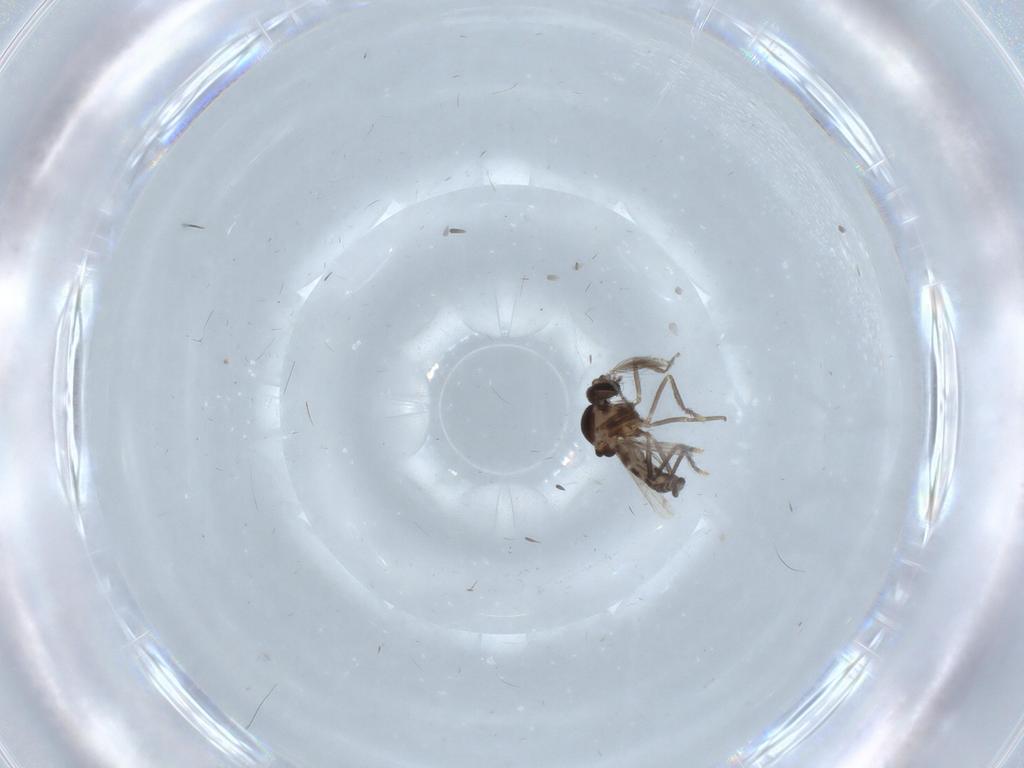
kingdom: Animalia
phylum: Arthropoda
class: Insecta
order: Diptera
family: Ceratopogonidae
